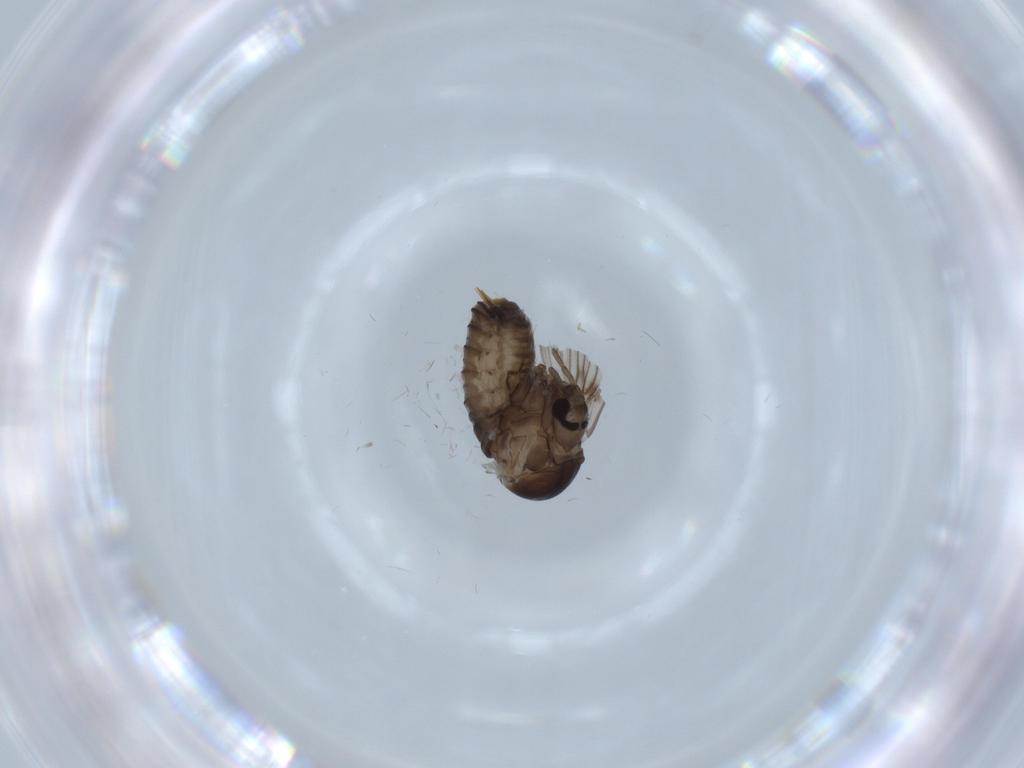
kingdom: Animalia
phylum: Arthropoda
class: Insecta
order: Diptera
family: Psychodidae
